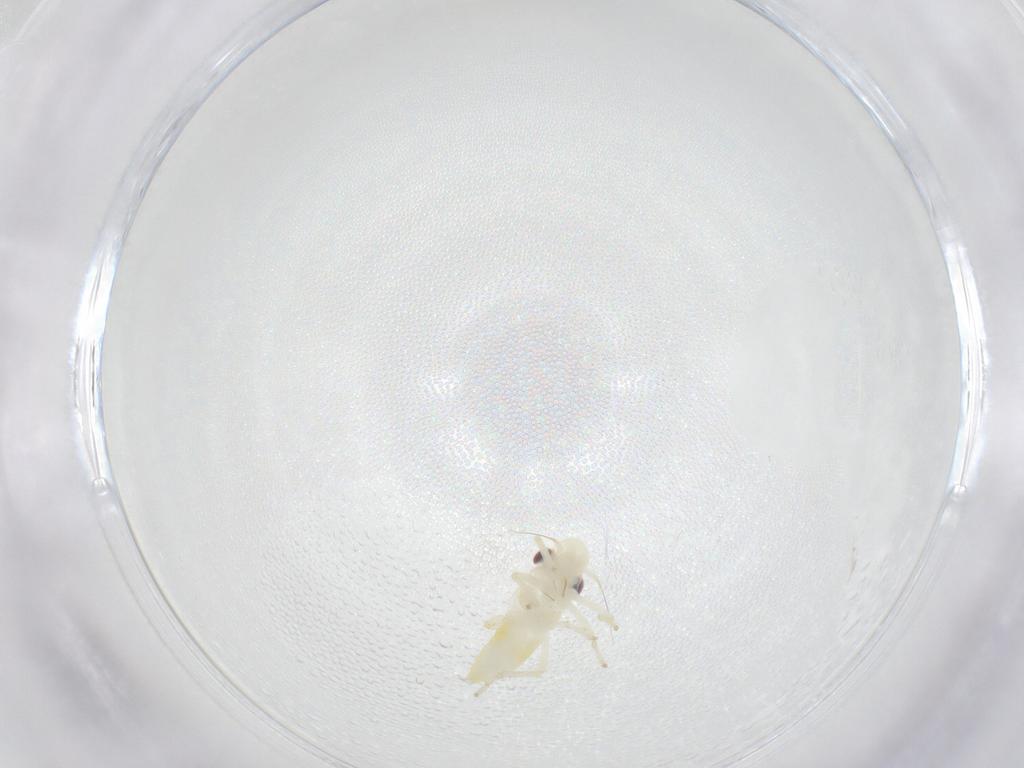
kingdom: Animalia
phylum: Arthropoda
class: Insecta
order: Hemiptera
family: Cicadellidae
